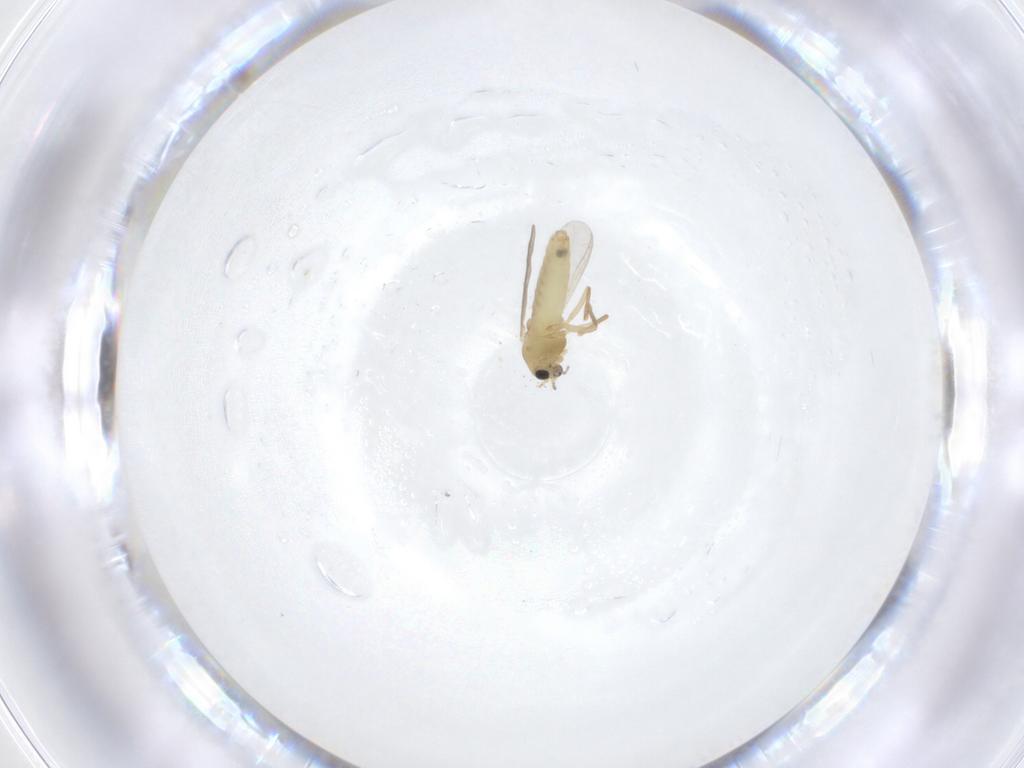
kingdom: Animalia
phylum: Arthropoda
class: Insecta
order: Diptera
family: Chironomidae
